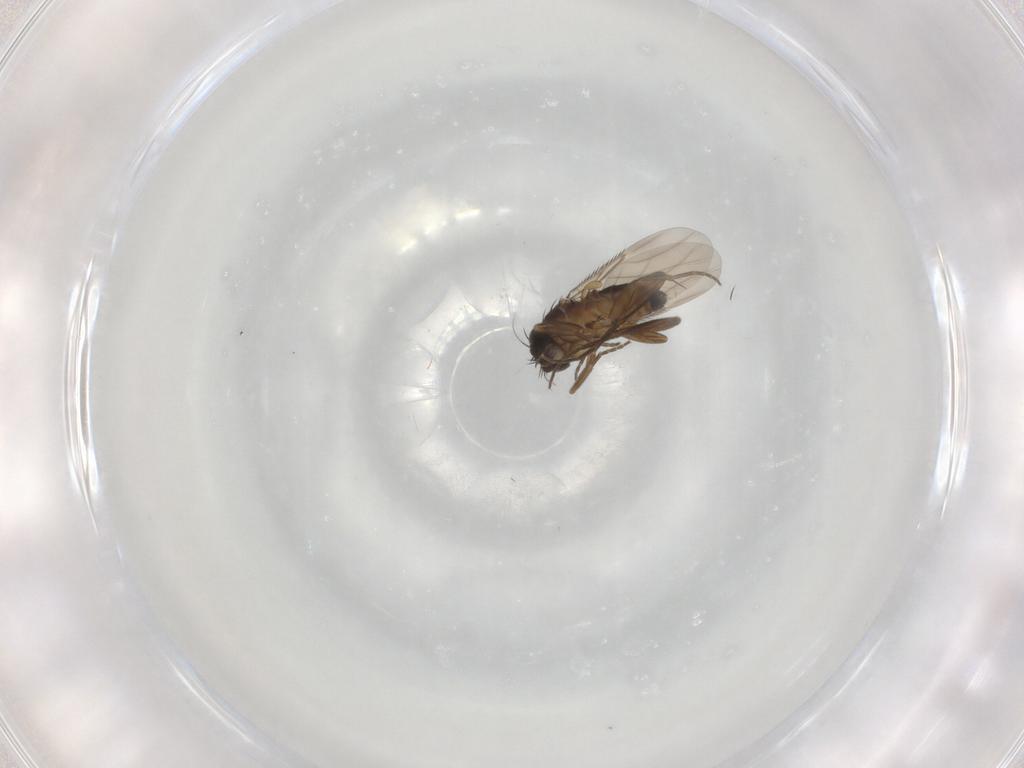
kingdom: Animalia
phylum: Arthropoda
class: Insecta
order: Diptera
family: Phoridae
